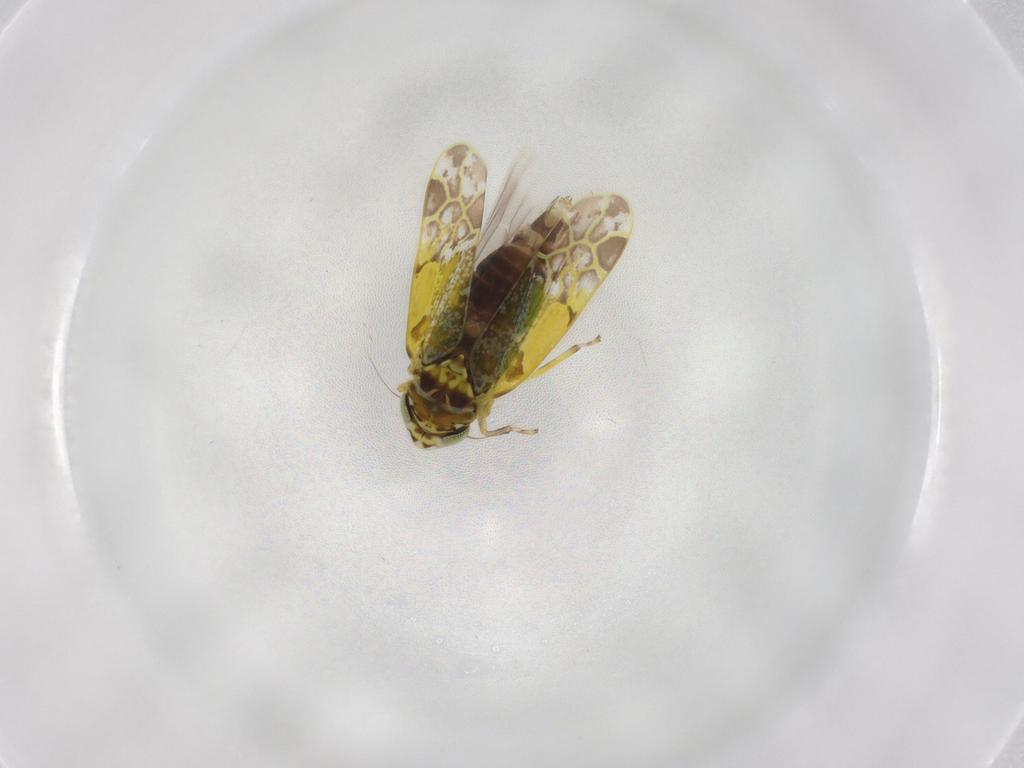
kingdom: Animalia
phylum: Arthropoda
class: Insecta
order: Hemiptera
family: Cicadellidae
